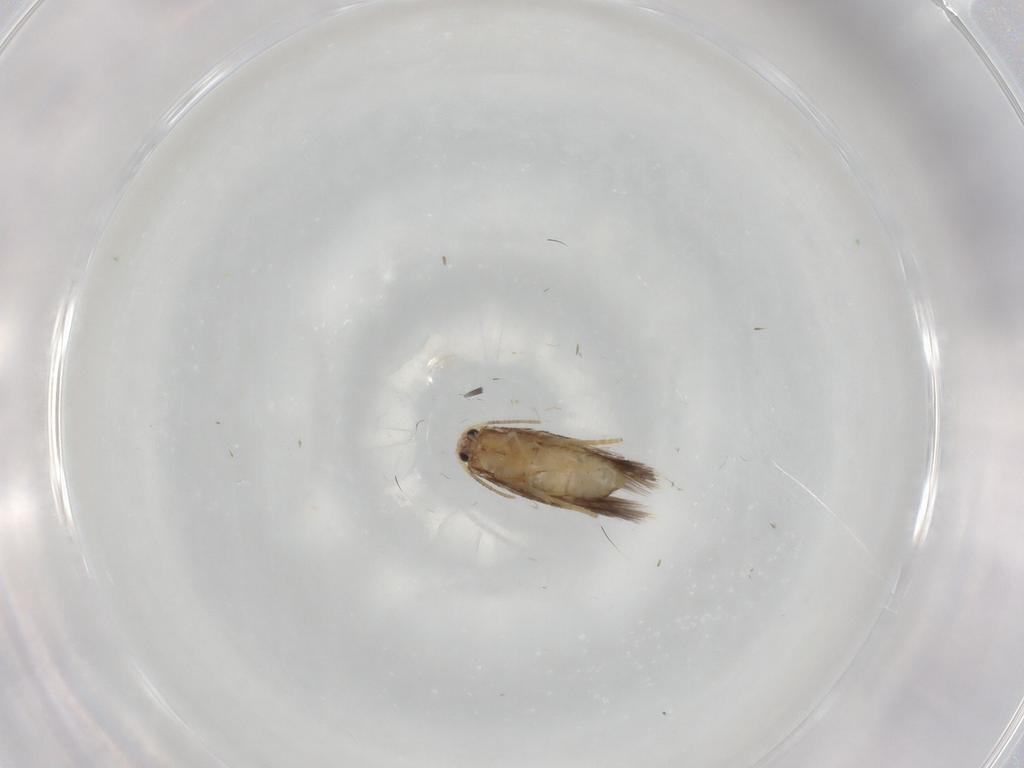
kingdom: Animalia
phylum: Arthropoda
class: Insecta
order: Lepidoptera
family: Nepticulidae
